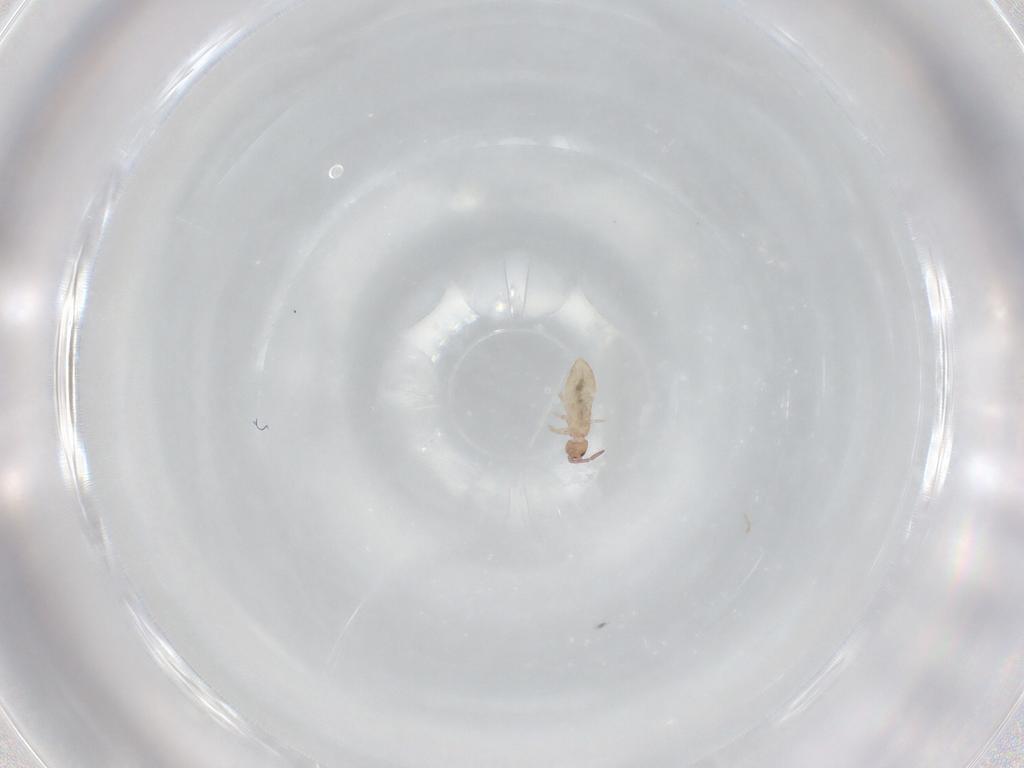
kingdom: Animalia
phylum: Arthropoda
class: Collembola
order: Entomobryomorpha
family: Tomoceridae
